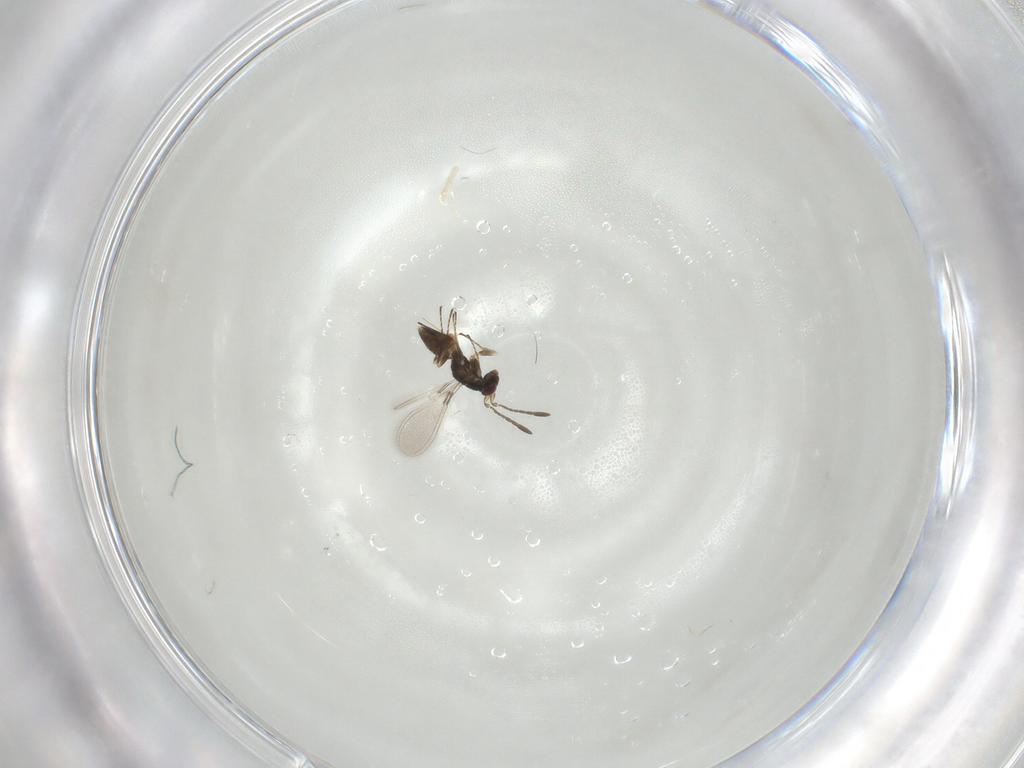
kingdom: Animalia
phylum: Arthropoda
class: Insecta
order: Hymenoptera
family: Mymaridae
